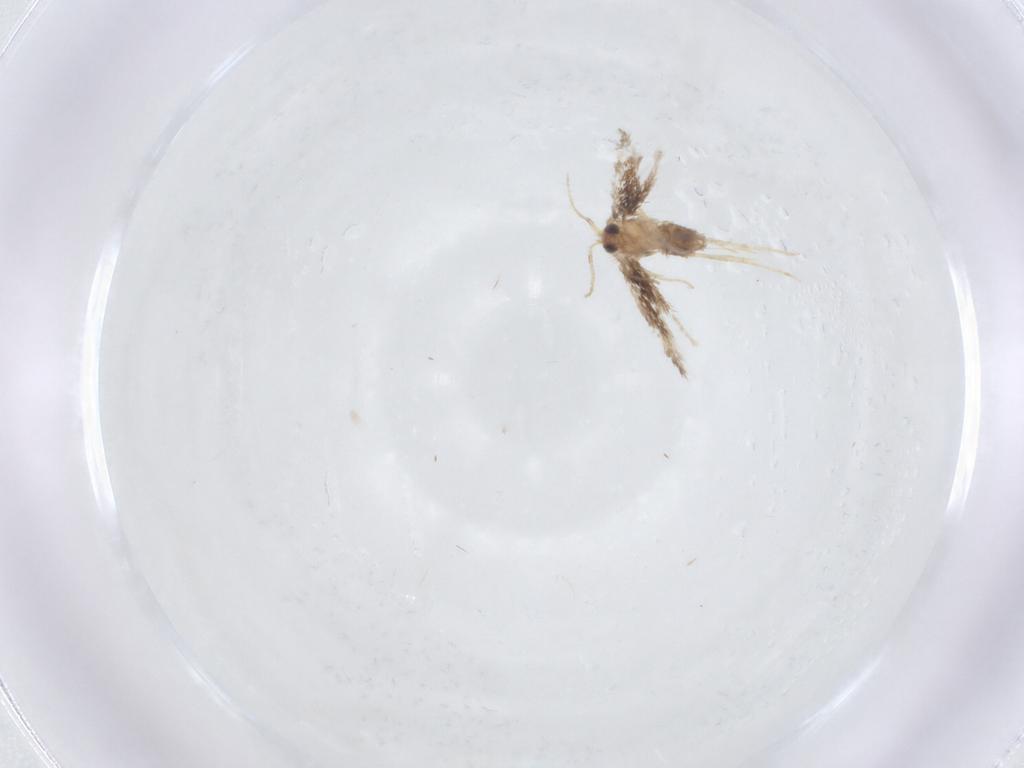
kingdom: Animalia
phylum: Arthropoda
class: Insecta
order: Lepidoptera
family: Nepticulidae
